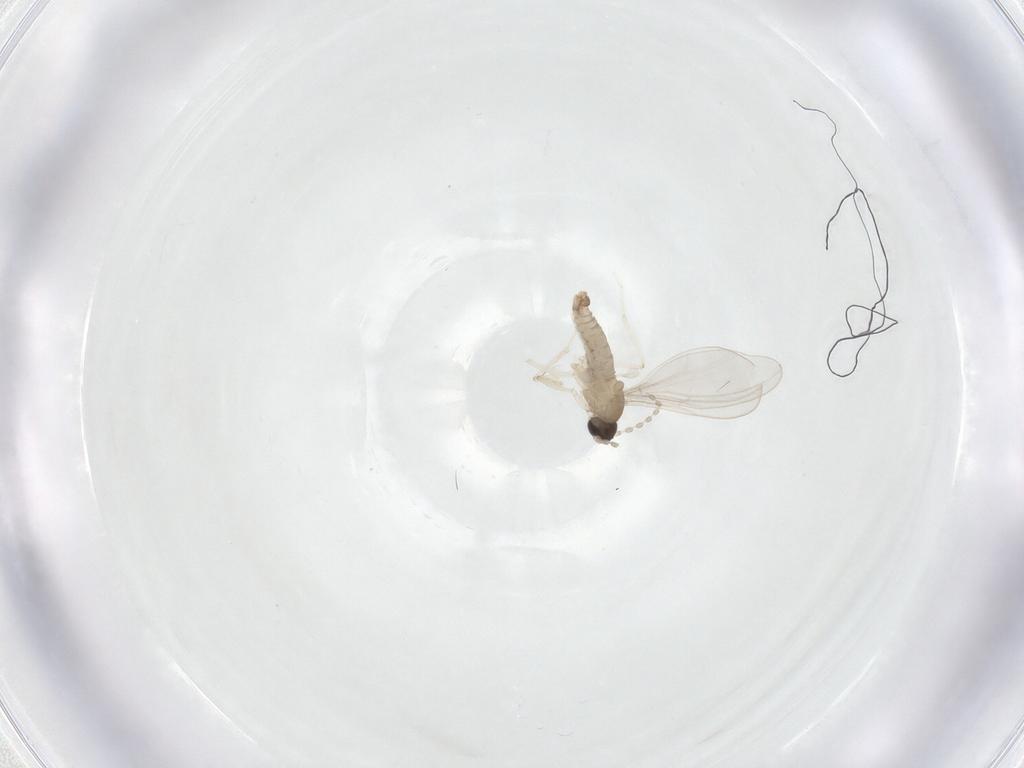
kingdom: Animalia
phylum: Arthropoda
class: Insecta
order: Diptera
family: Cecidomyiidae
